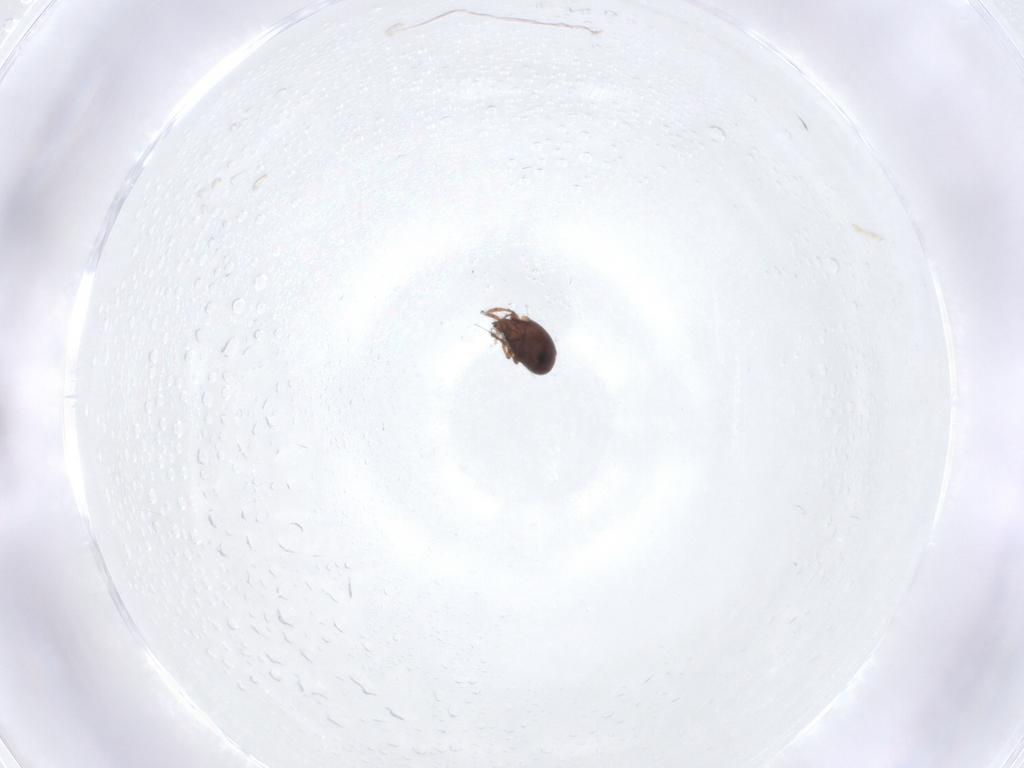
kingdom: Animalia
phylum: Arthropoda
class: Arachnida
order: Sarcoptiformes
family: Ceratozetidae
